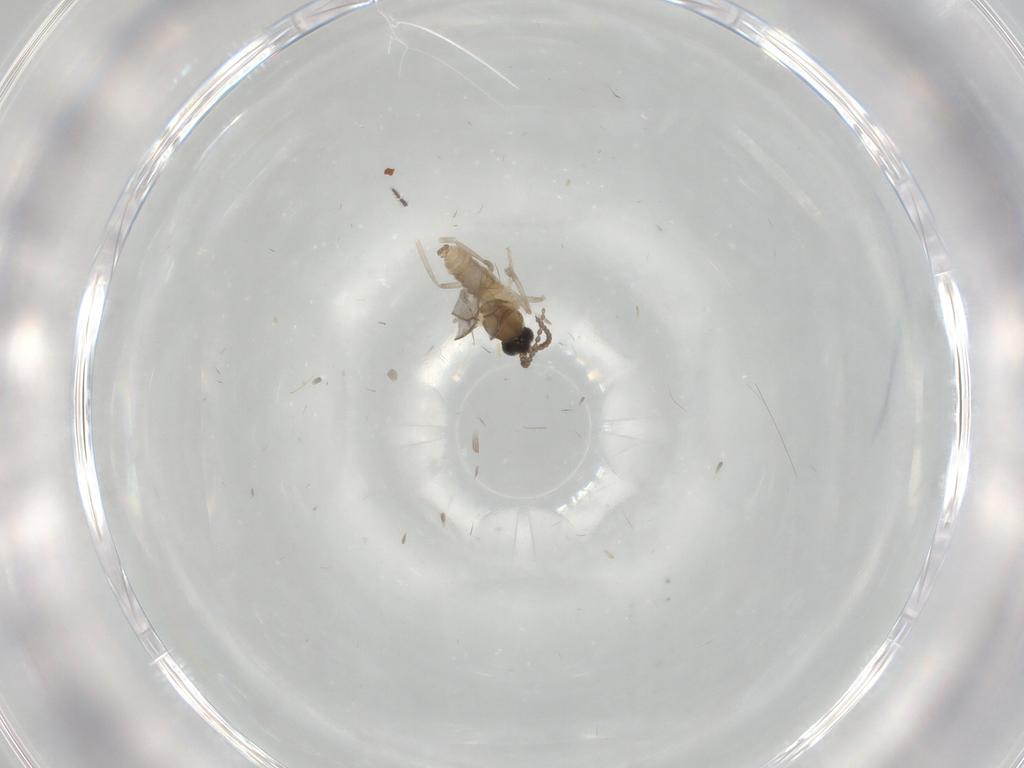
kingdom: Animalia
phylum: Arthropoda
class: Insecta
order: Diptera
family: Cecidomyiidae
